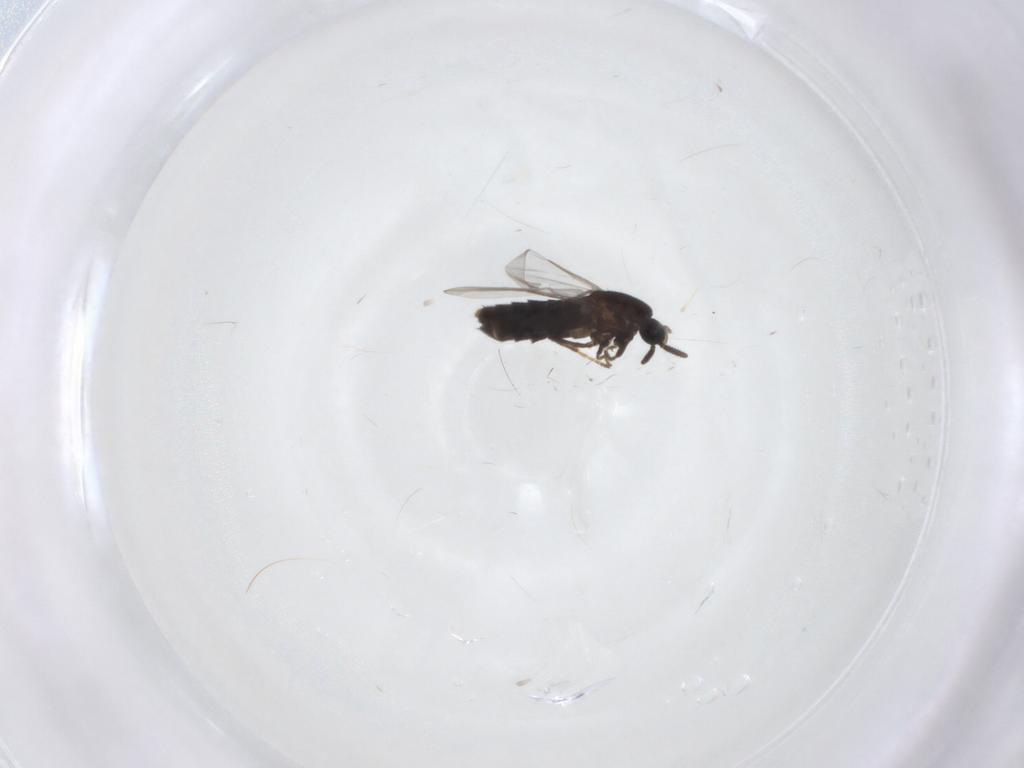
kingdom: Animalia
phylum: Arthropoda
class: Insecta
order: Diptera
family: Scatopsidae
